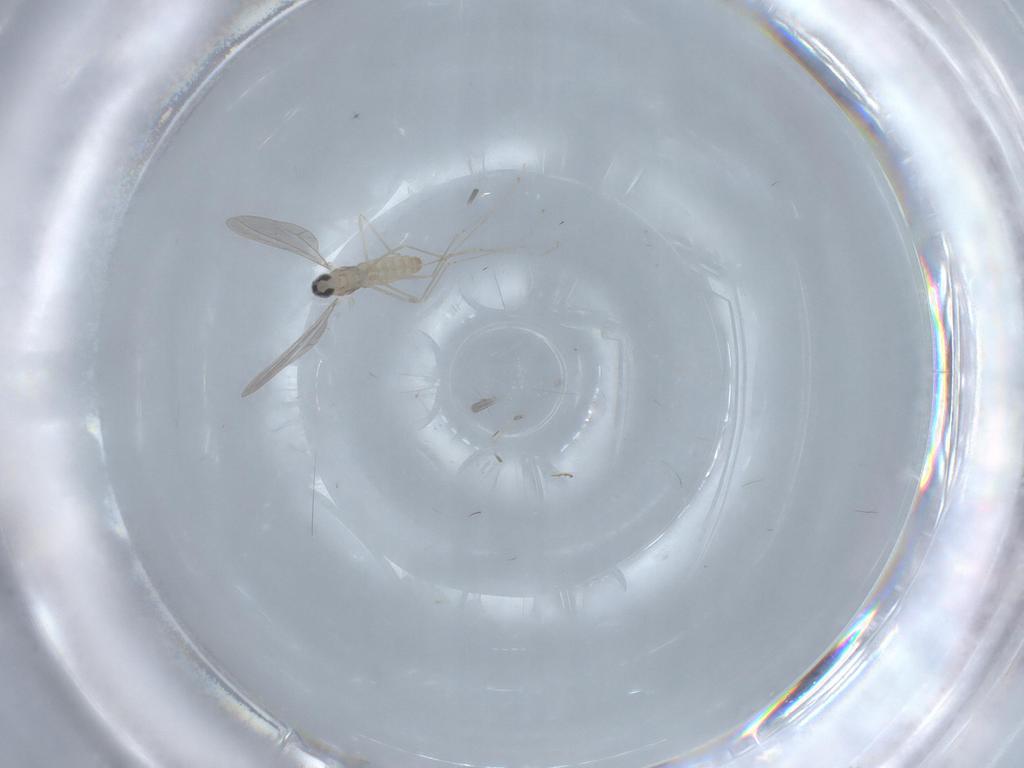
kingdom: Animalia
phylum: Arthropoda
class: Insecta
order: Diptera
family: Cecidomyiidae
